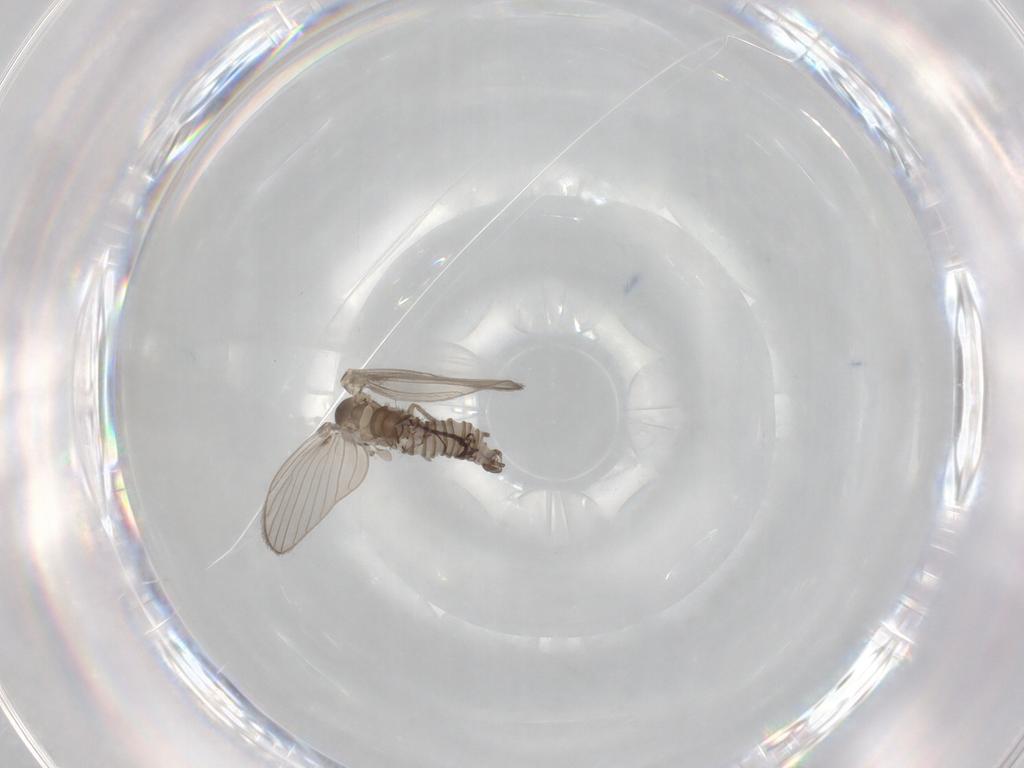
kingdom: Animalia
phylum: Arthropoda
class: Insecta
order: Diptera
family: Psychodidae
